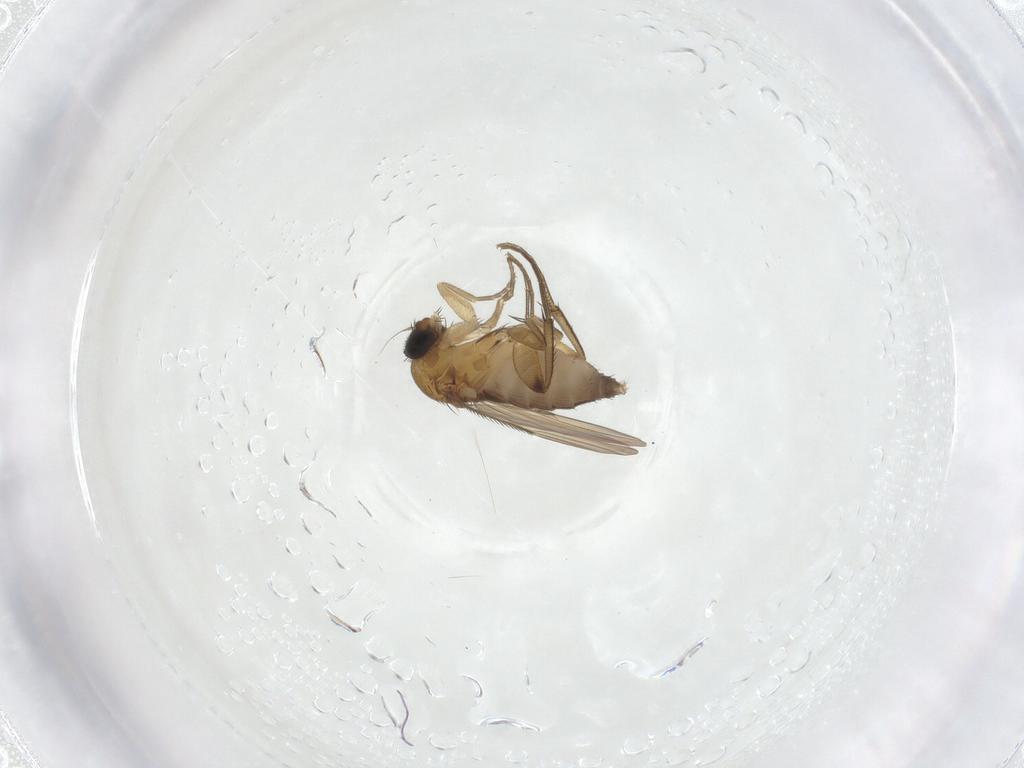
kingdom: Animalia
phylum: Arthropoda
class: Insecta
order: Diptera
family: Phoridae
